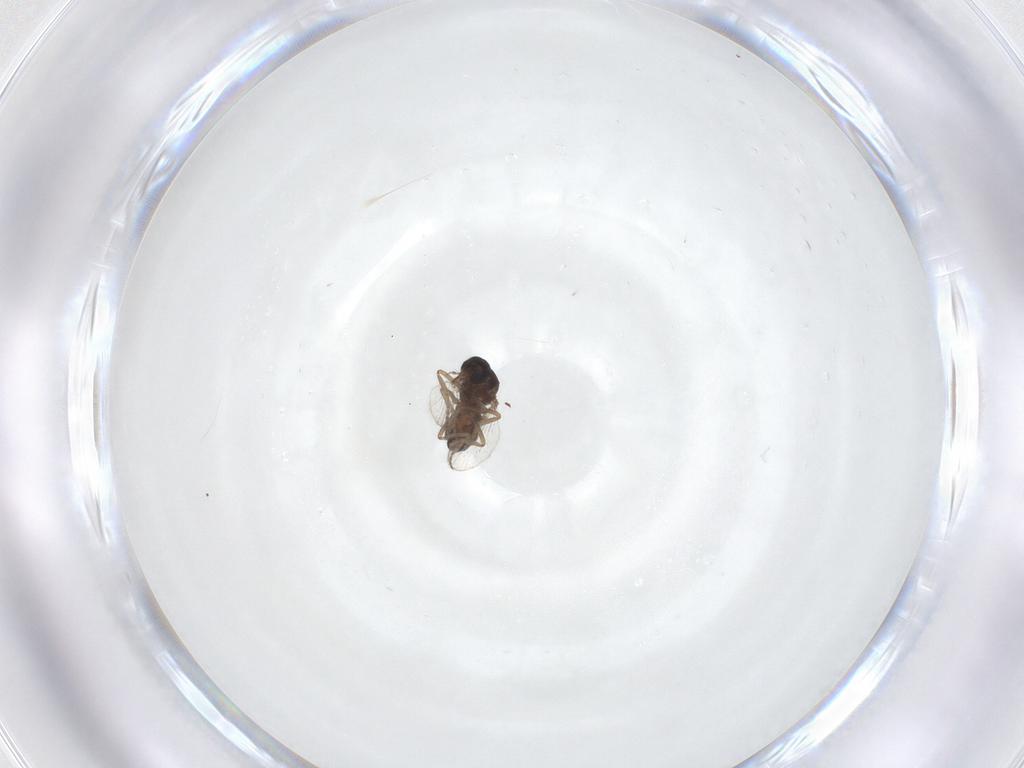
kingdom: Animalia
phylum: Arthropoda
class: Insecta
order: Diptera
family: Ceratopogonidae
